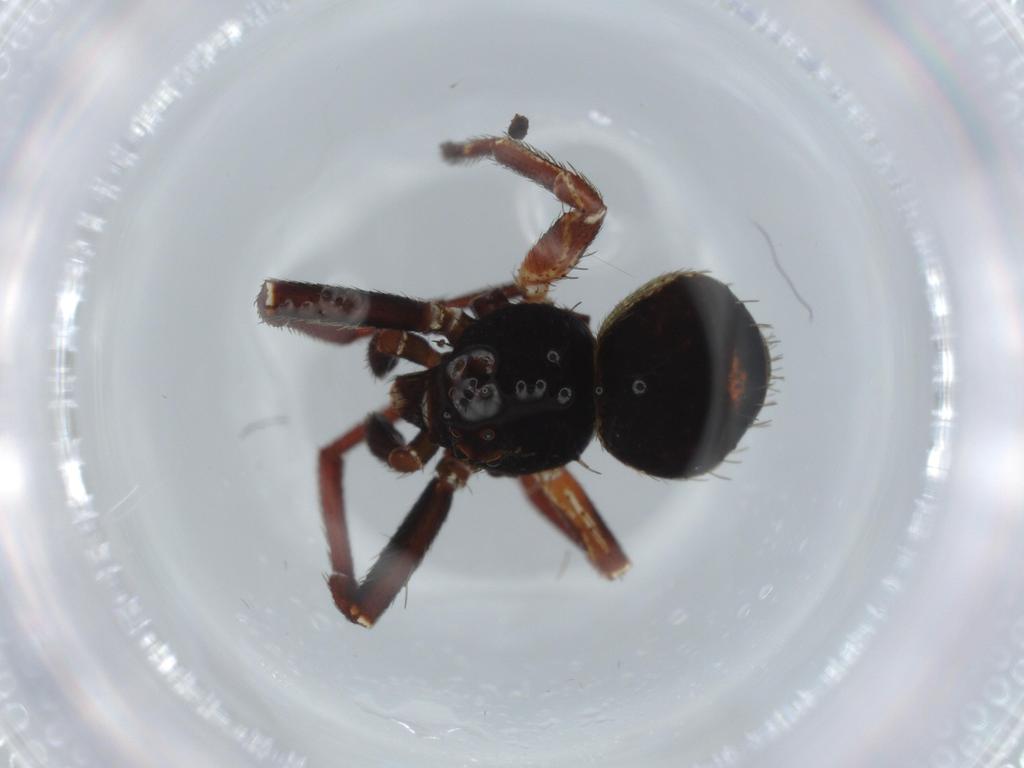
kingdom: Animalia
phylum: Arthropoda
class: Arachnida
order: Araneae
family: Thomisidae
